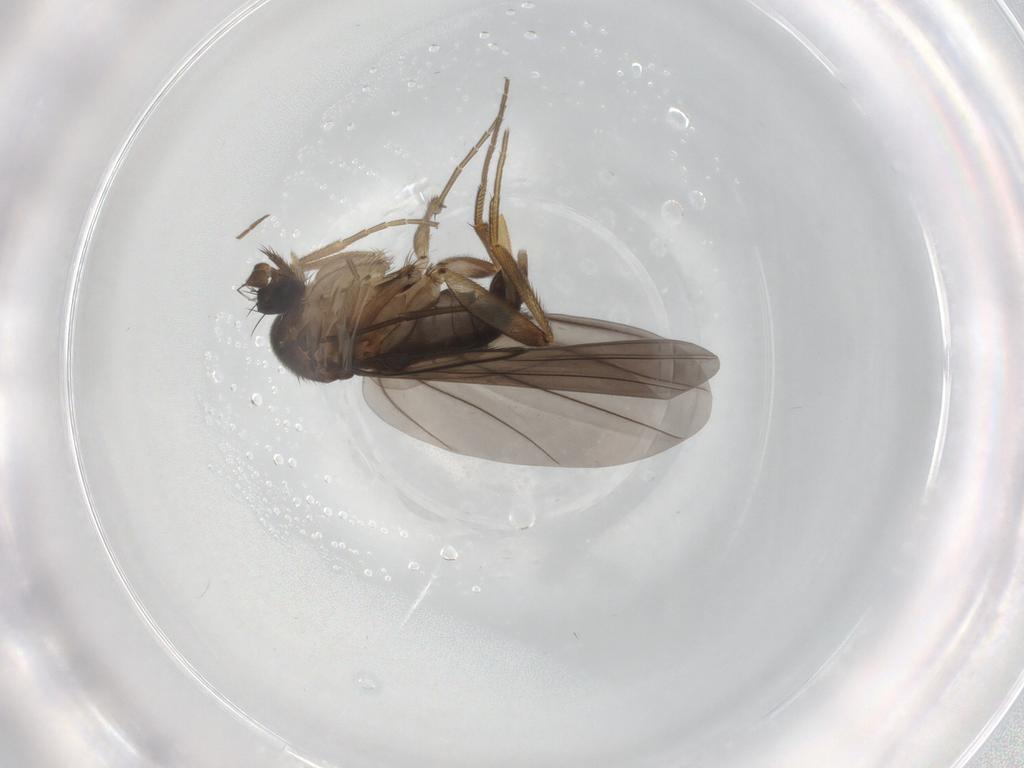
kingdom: Animalia
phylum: Arthropoda
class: Insecta
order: Diptera
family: Phoridae
